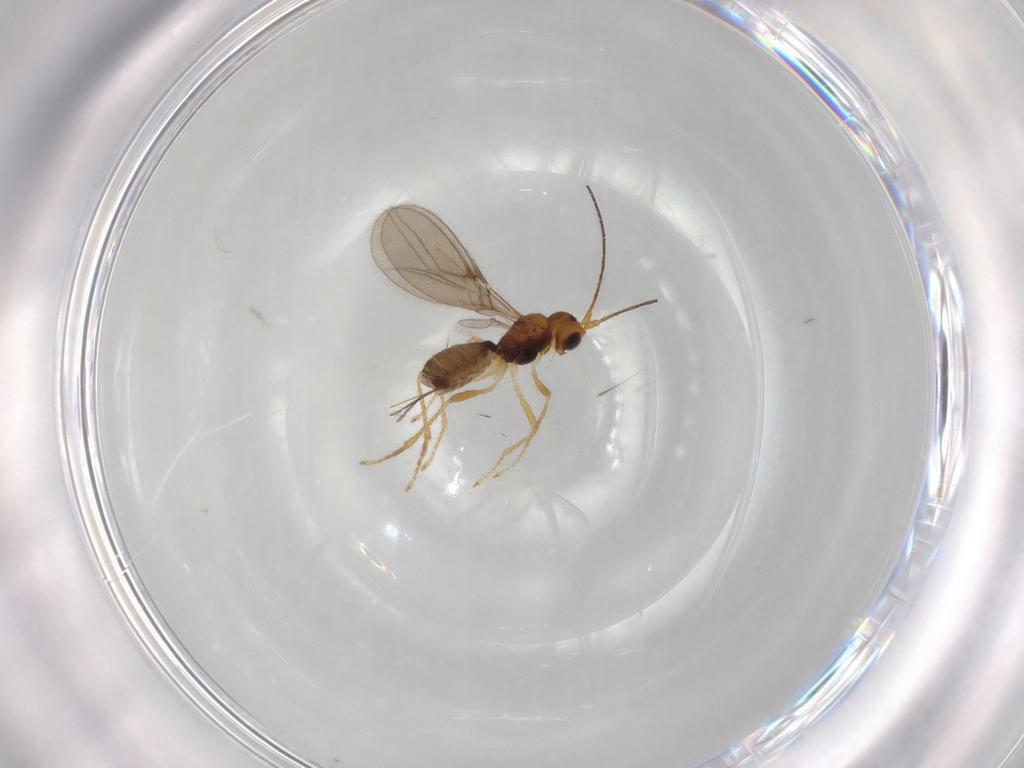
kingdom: Animalia
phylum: Arthropoda
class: Insecta
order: Hymenoptera
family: Braconidae
